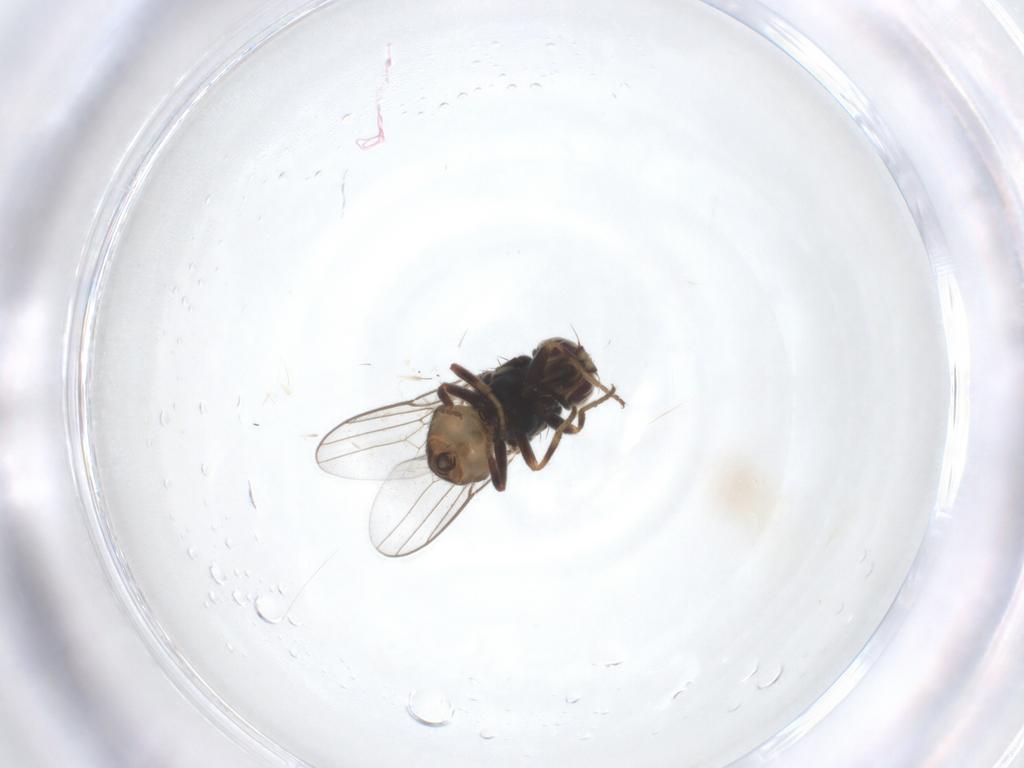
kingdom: Animalia
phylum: Arthropoda
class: Insecta
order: Diptera
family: Chloropidae
